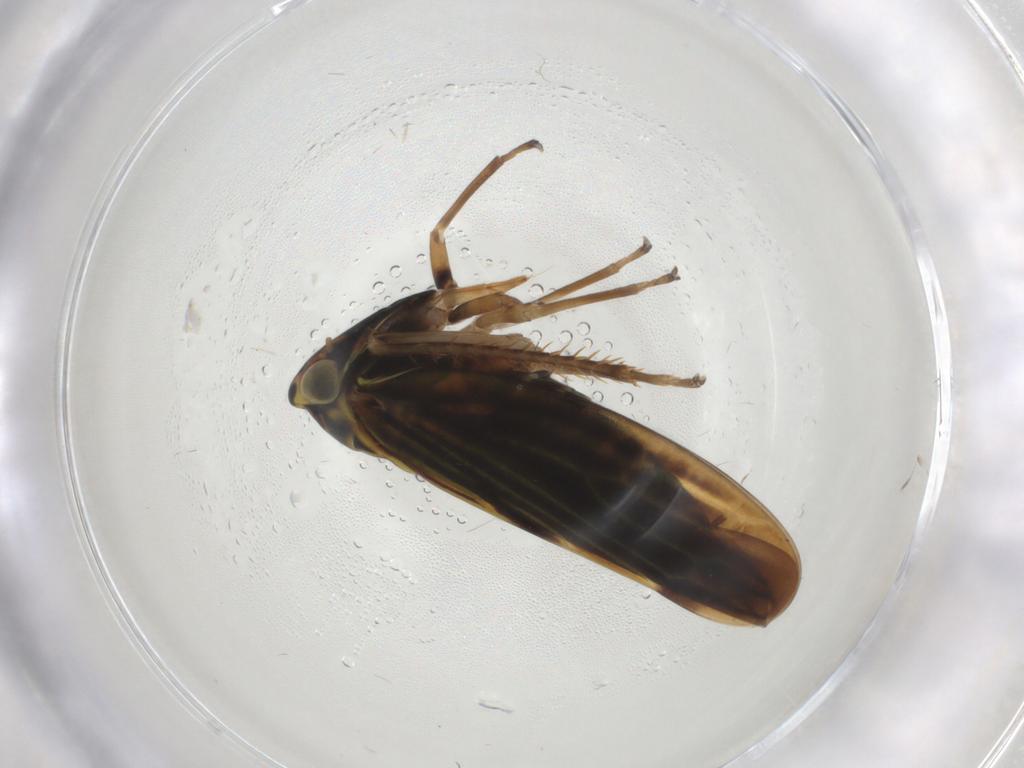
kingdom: Animalia
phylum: Arthropoda
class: Insecta
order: Hemiptera
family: Cicadellidae
